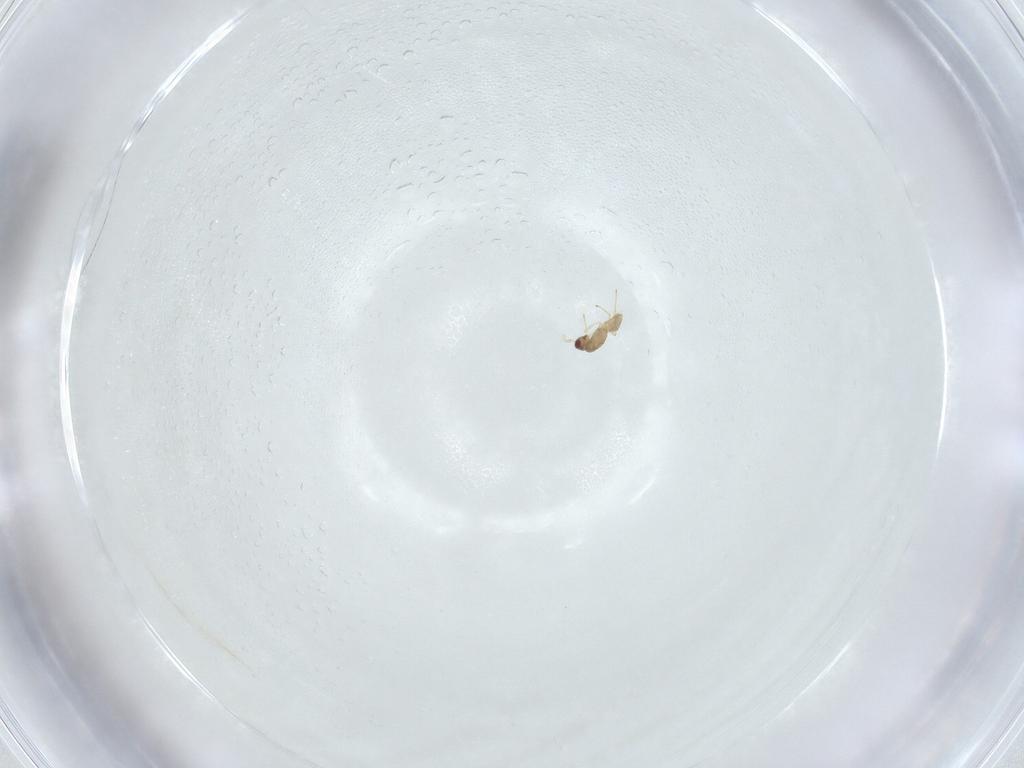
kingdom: Animalia
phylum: Arthropoda
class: Insecta
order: Hymenoptera
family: Mymaridae
